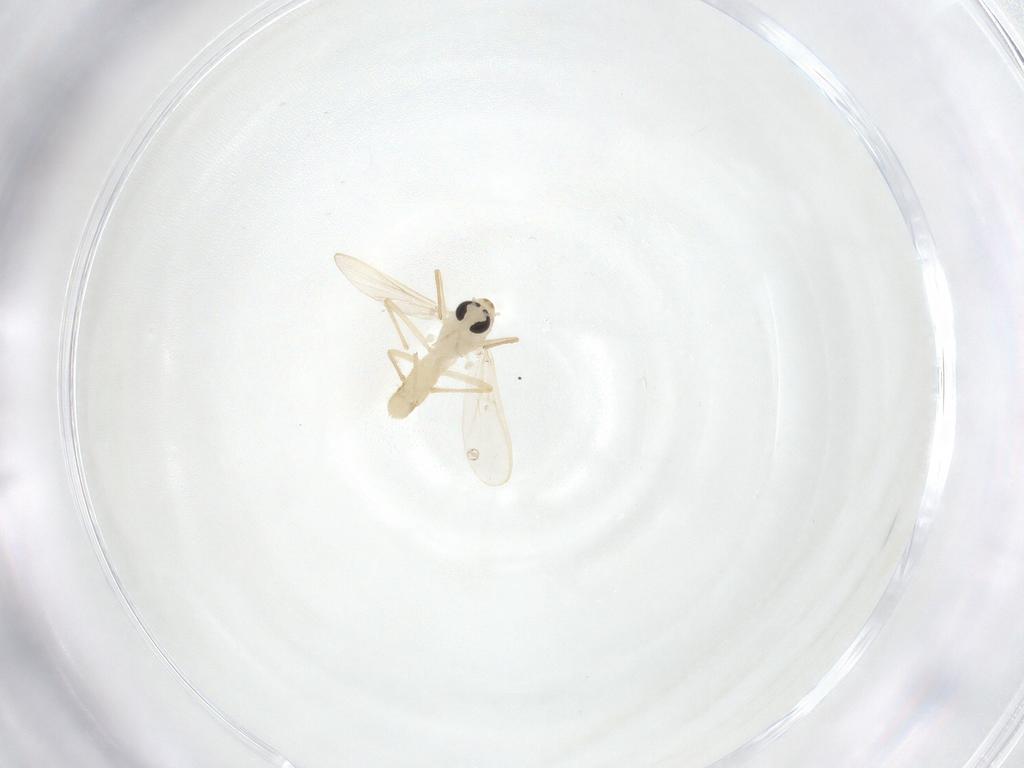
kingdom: Animalia
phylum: Arthropoda
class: Insecta
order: Diptera
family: Chironomidae
